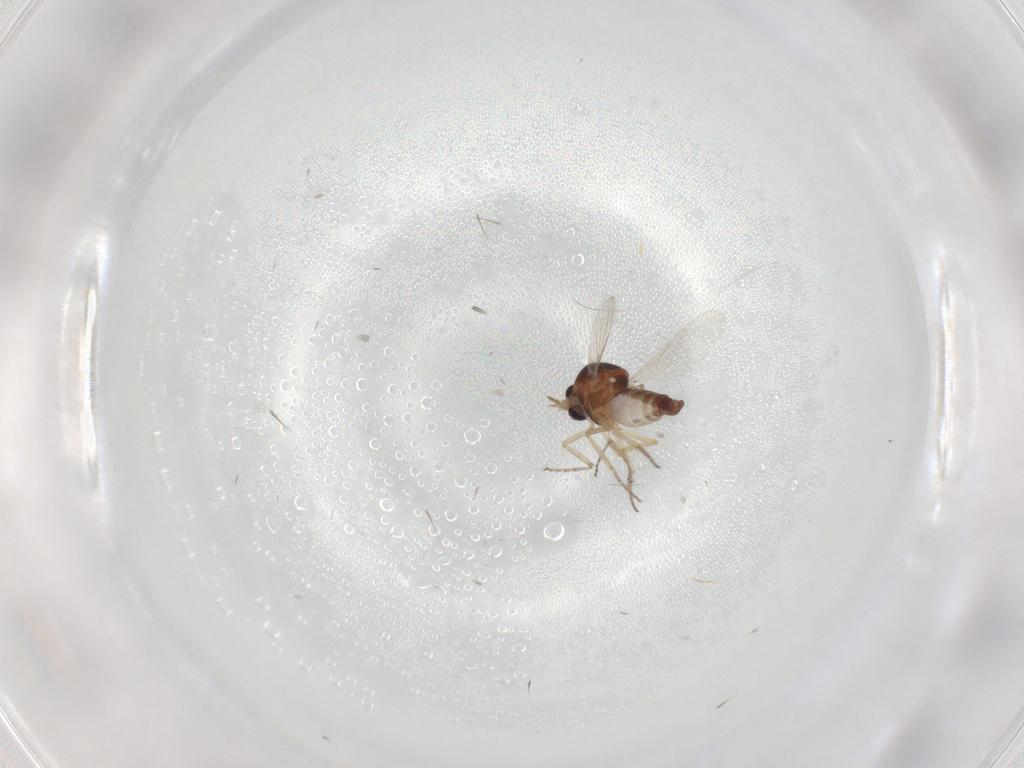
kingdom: Animalia
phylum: Arthropoda
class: Insecta
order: Diptera
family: Ceratopogonidae
